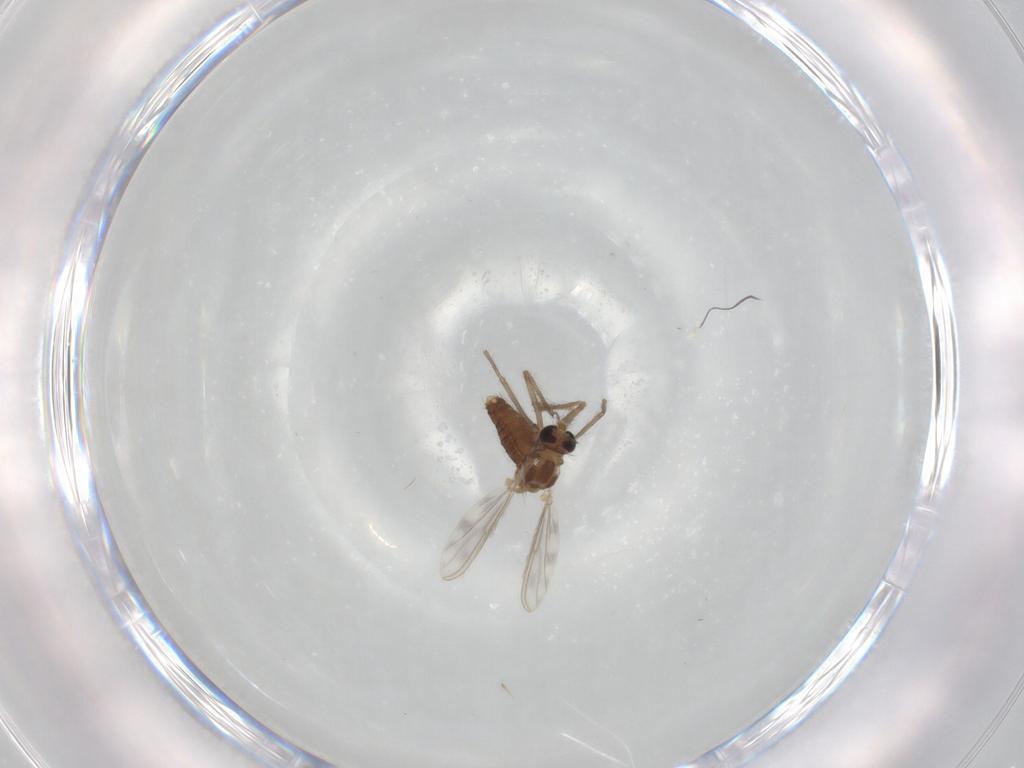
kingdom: Animalia
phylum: Arthropoda
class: Insecta
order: Diptera
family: Chironomidae
